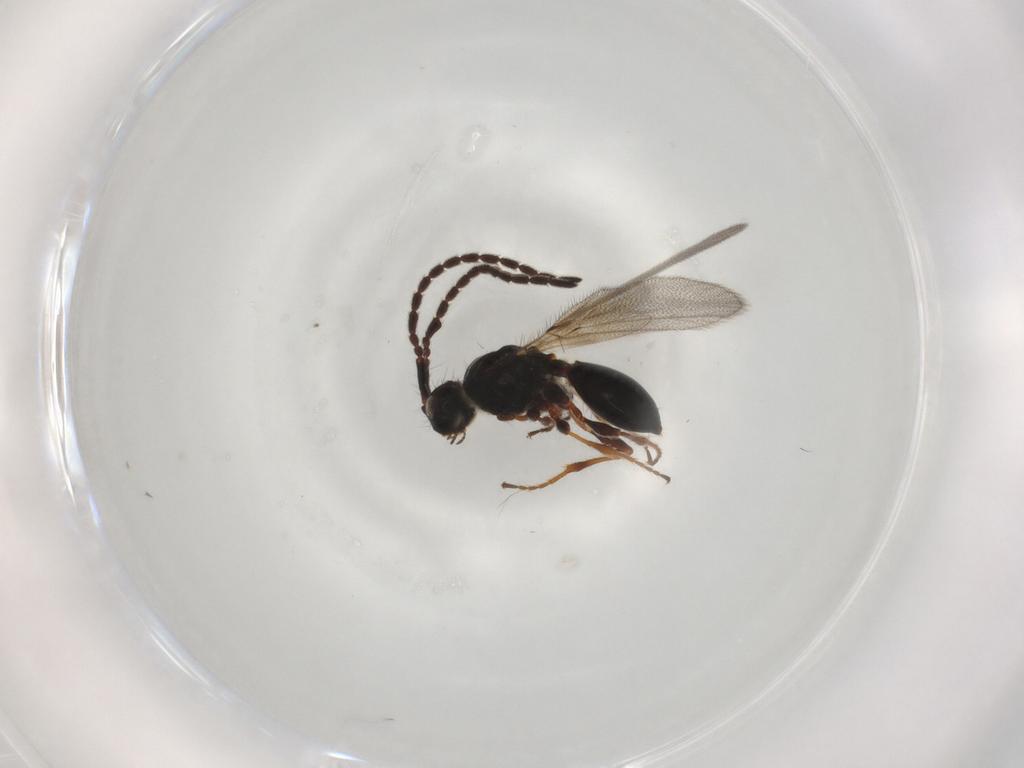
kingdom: Animalia
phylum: Arthropoda
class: Insecta
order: Hymenoptera
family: Diapriidae
